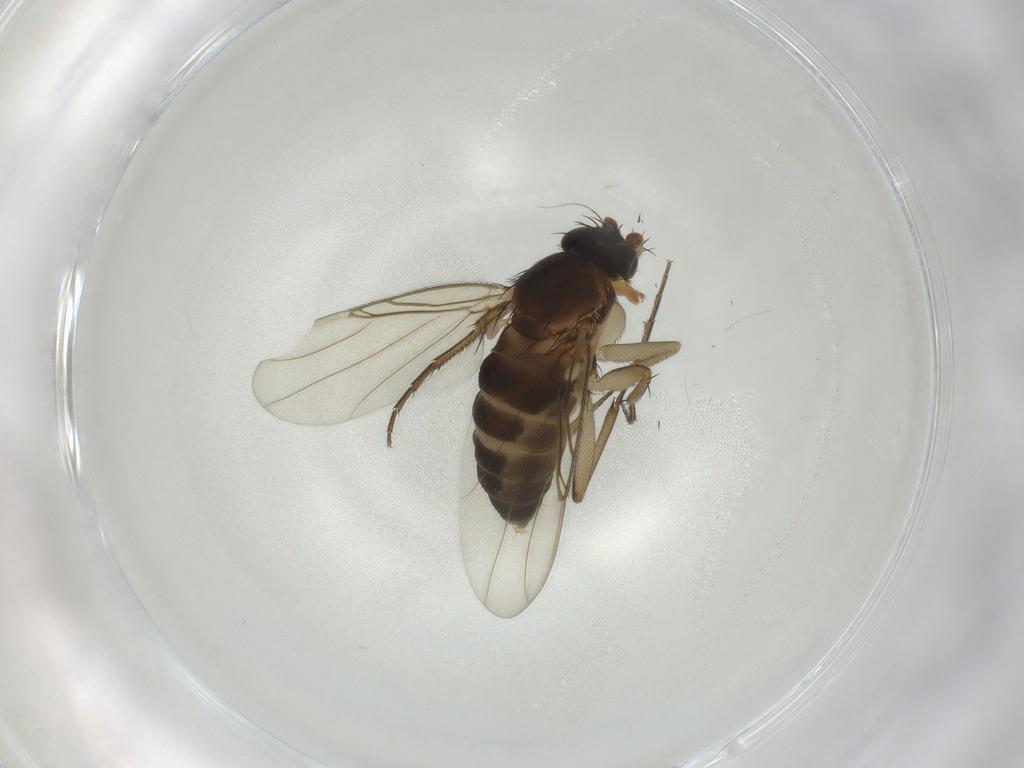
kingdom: Animalia
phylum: Arthropoda
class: Insecta
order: Diptera
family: Phoridae
